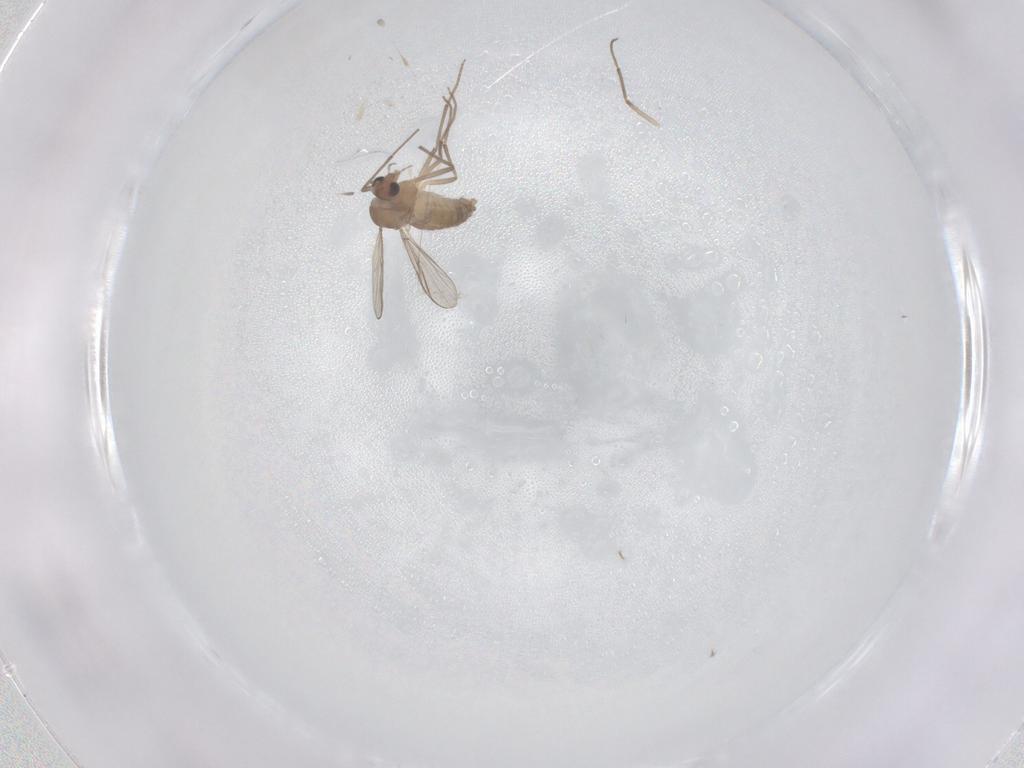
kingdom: Animalia
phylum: Arthropoda
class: Insecta
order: Diptera
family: Chironomidae
